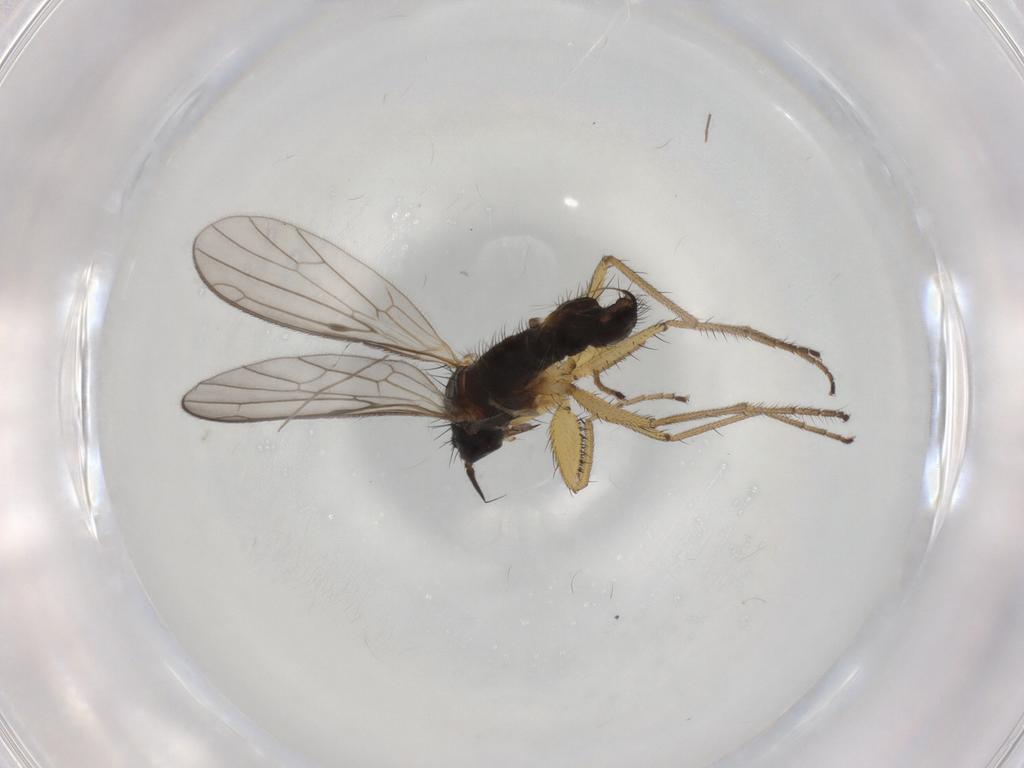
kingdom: Animalia
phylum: Arthropoda
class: Insecta
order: Diptera
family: Chironomidae
